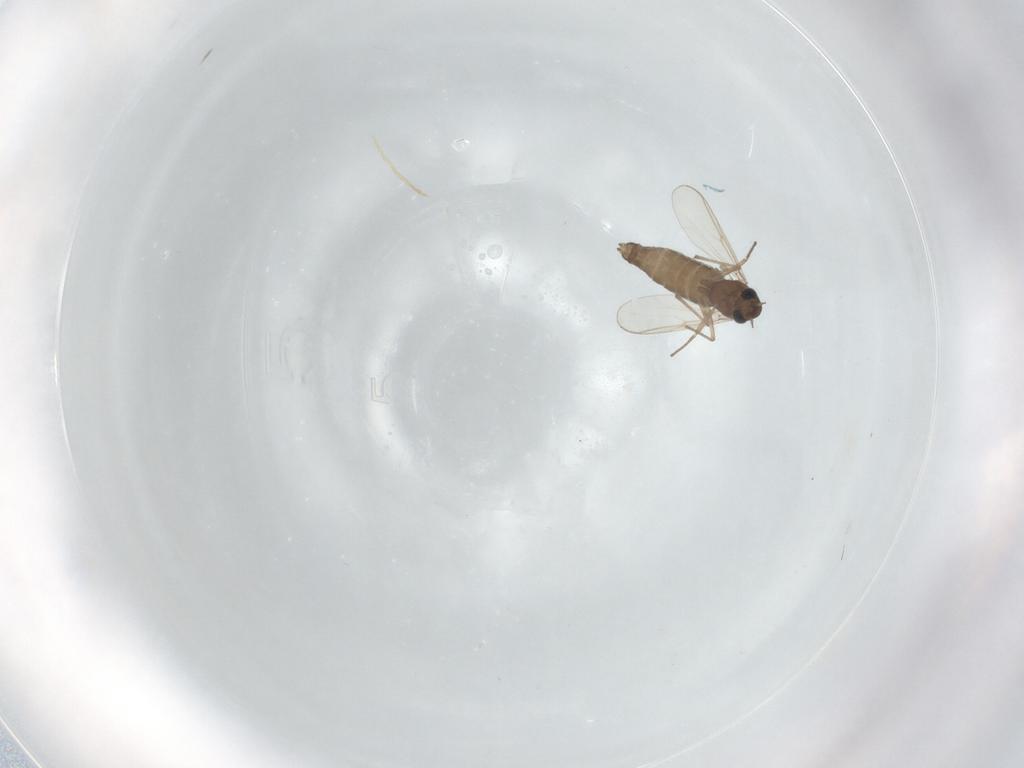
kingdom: Animalia
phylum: Arthropoda
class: Insecta
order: Diptera
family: Chironomidae
